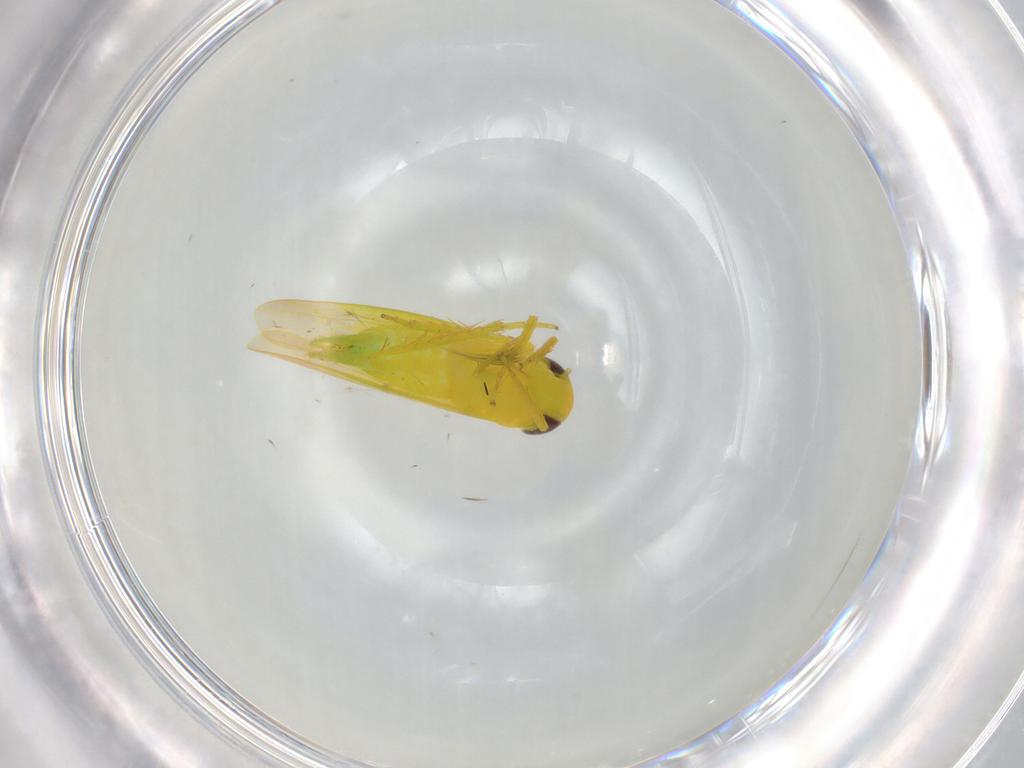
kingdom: Animalia
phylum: Arthropoda
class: Insecta
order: Hemiptera
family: Cicadellidae
